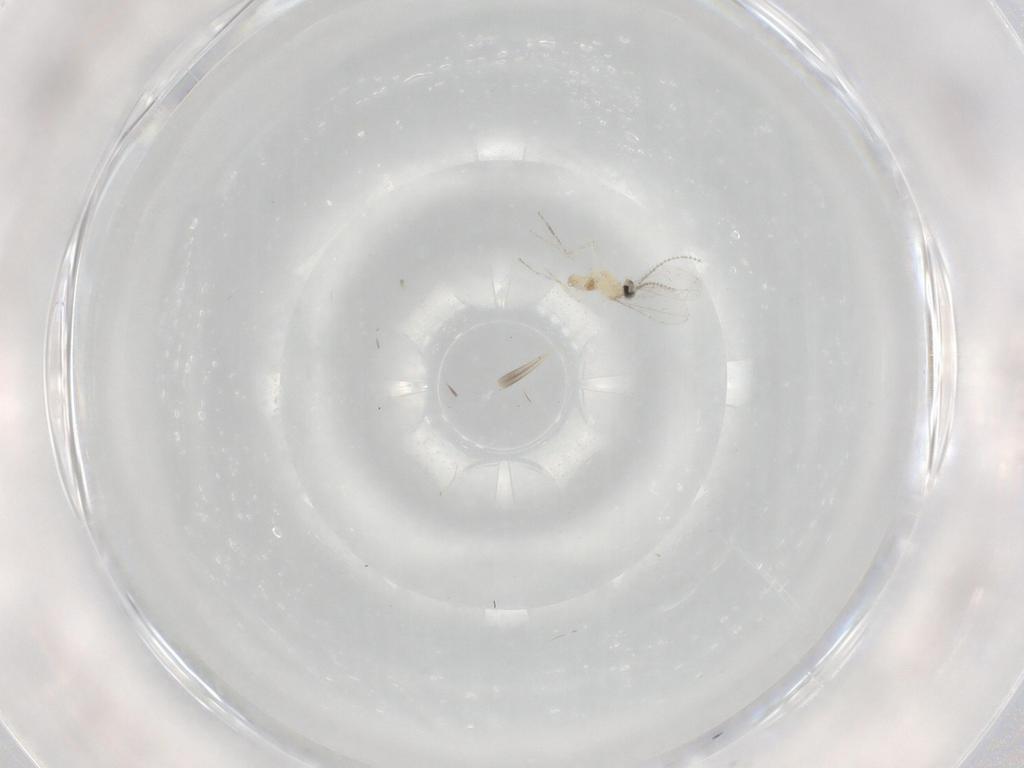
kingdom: Animalia
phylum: Arthropoda
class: Insecta
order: Diptera
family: Cecidomyiidae
